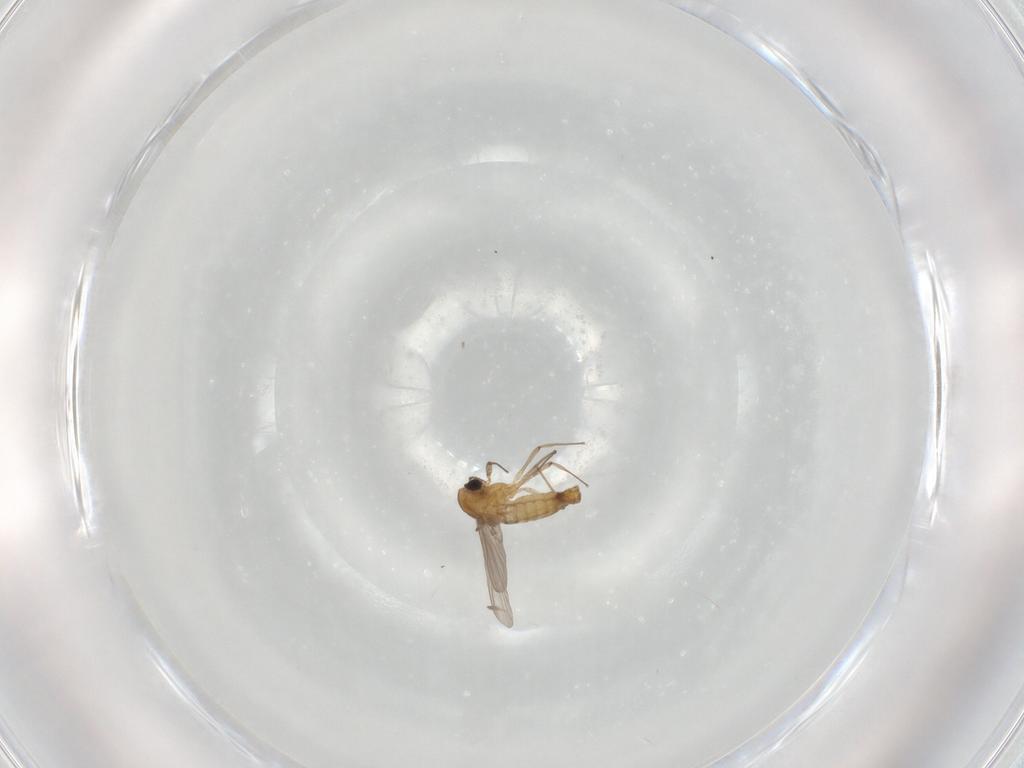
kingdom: Animalia
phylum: Arthropoda
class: Insecta
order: Diptera
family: Chironomidae
